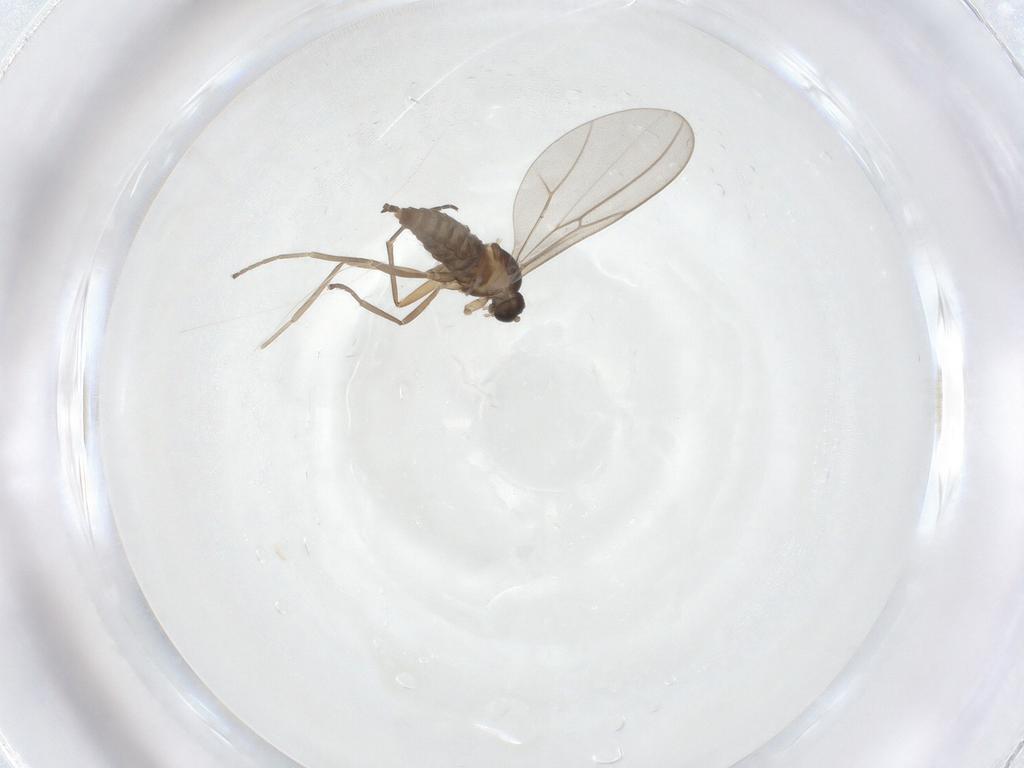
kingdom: Animalia
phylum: Arthropoda
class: Insecta
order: Diptera
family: Cecidomyiidae
